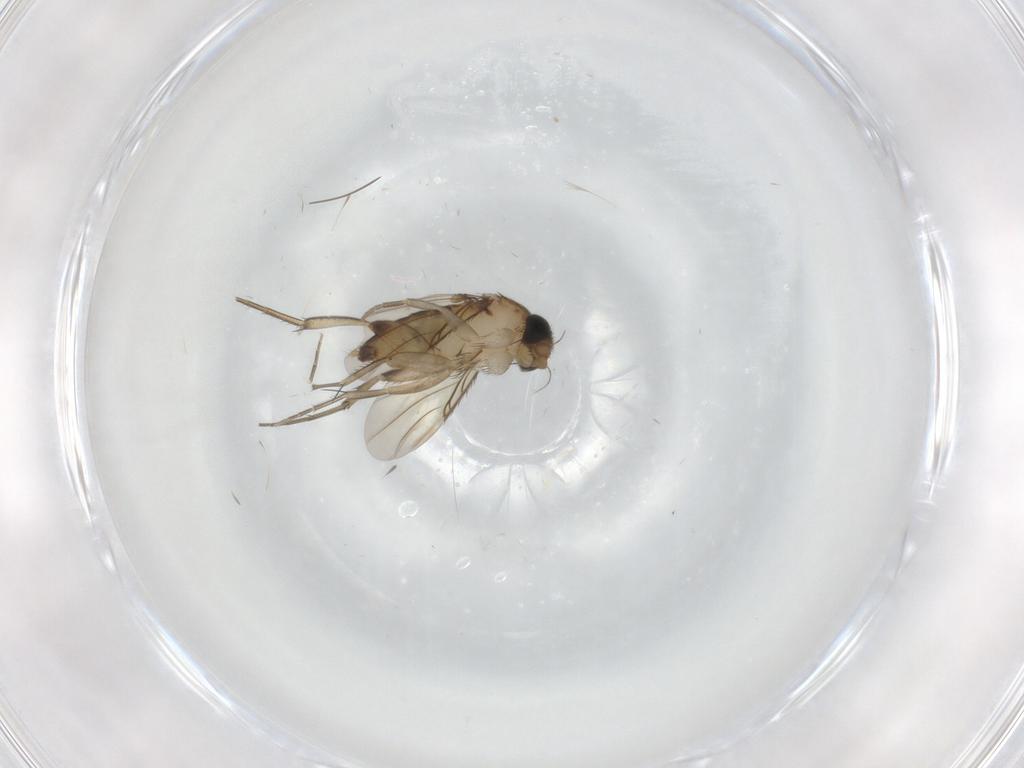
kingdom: Animalia
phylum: Arthropoda
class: Insecta
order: Diptera
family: Phoridae
